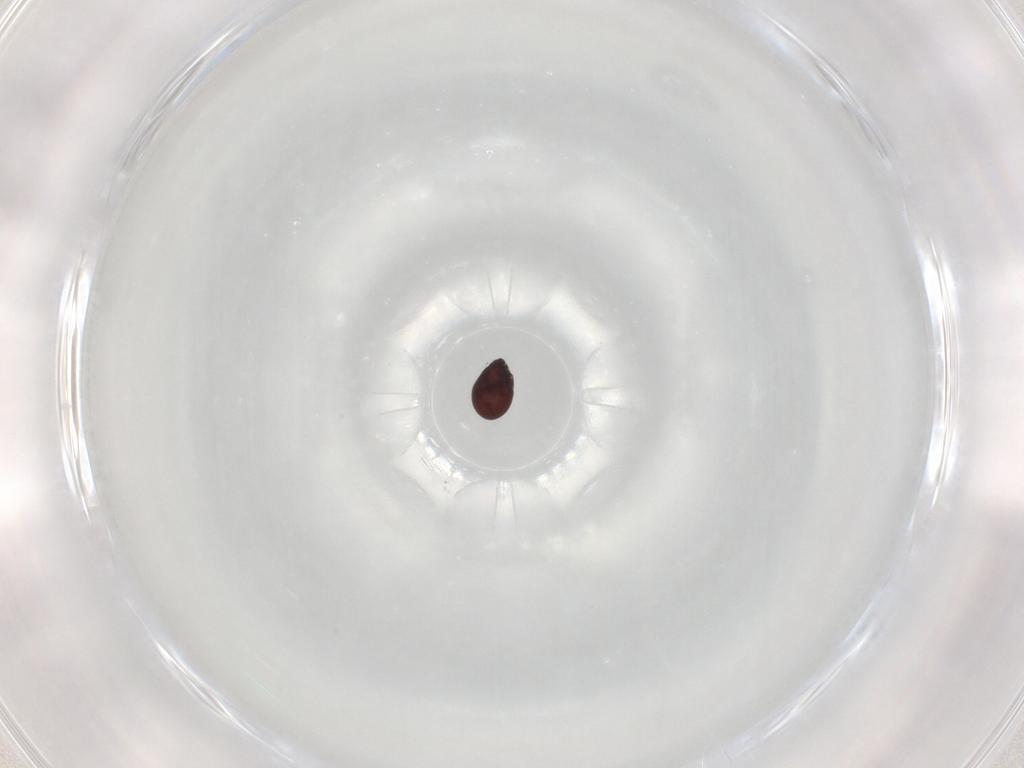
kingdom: Animalia
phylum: Arthropoda
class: Arachnida
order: Sarcoptiformes
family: Punctoribatidae
